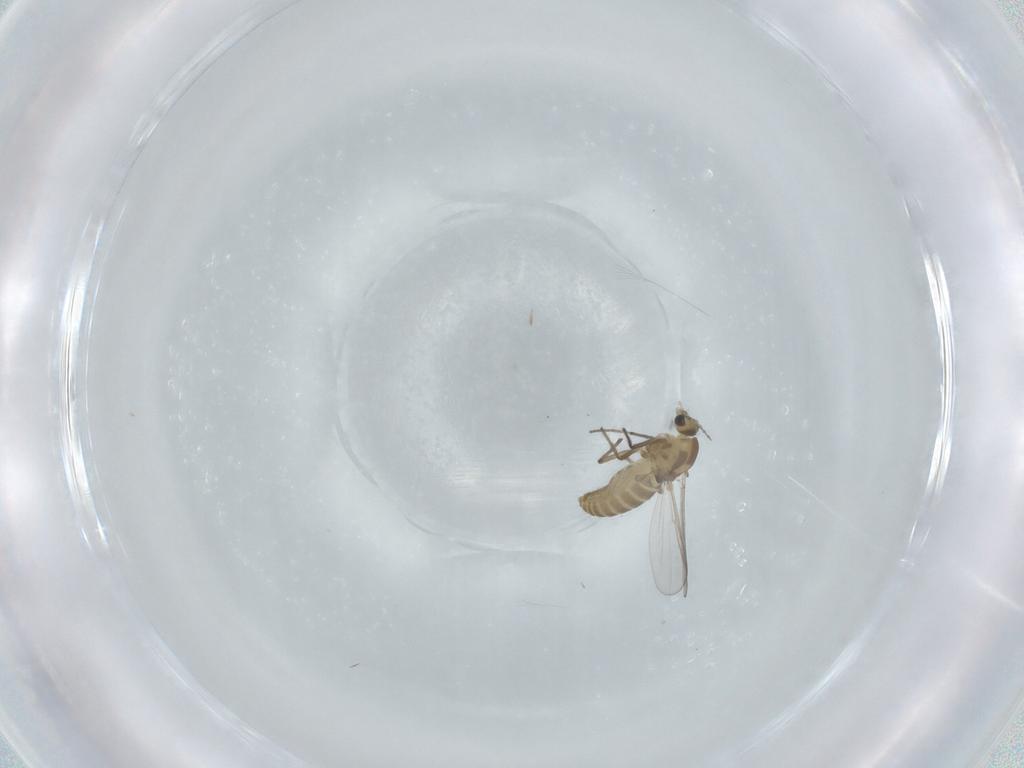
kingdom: Animalia
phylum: Arthropoda
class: Insecta
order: Diptera
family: Chironomidae
